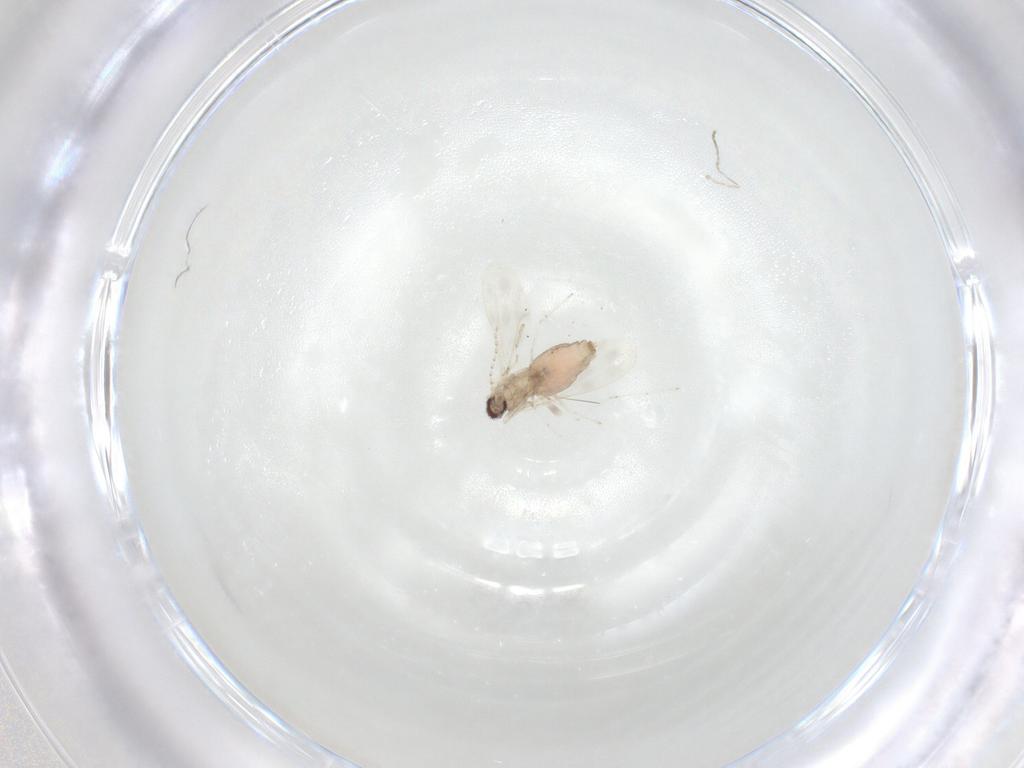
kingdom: Animalia
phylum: Arthropoda
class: Insecta
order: Diptera
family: Cecidomyiidae
